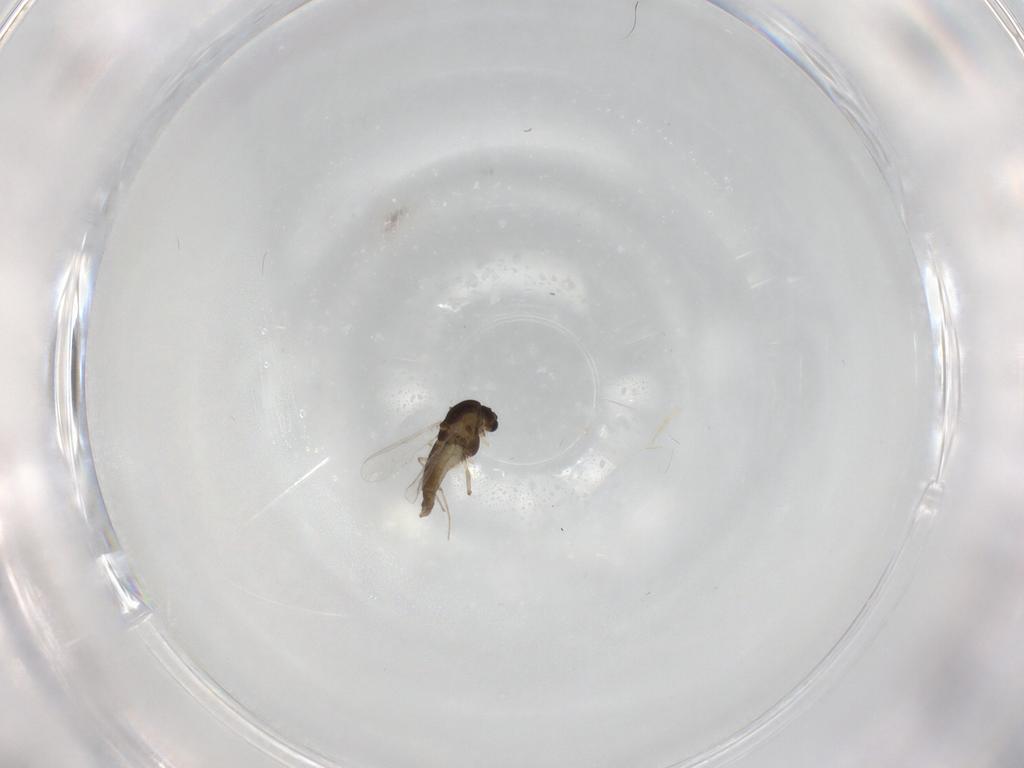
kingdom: Animalia
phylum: Arthropoda
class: Insecta
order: Diptera
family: Chironomidae
